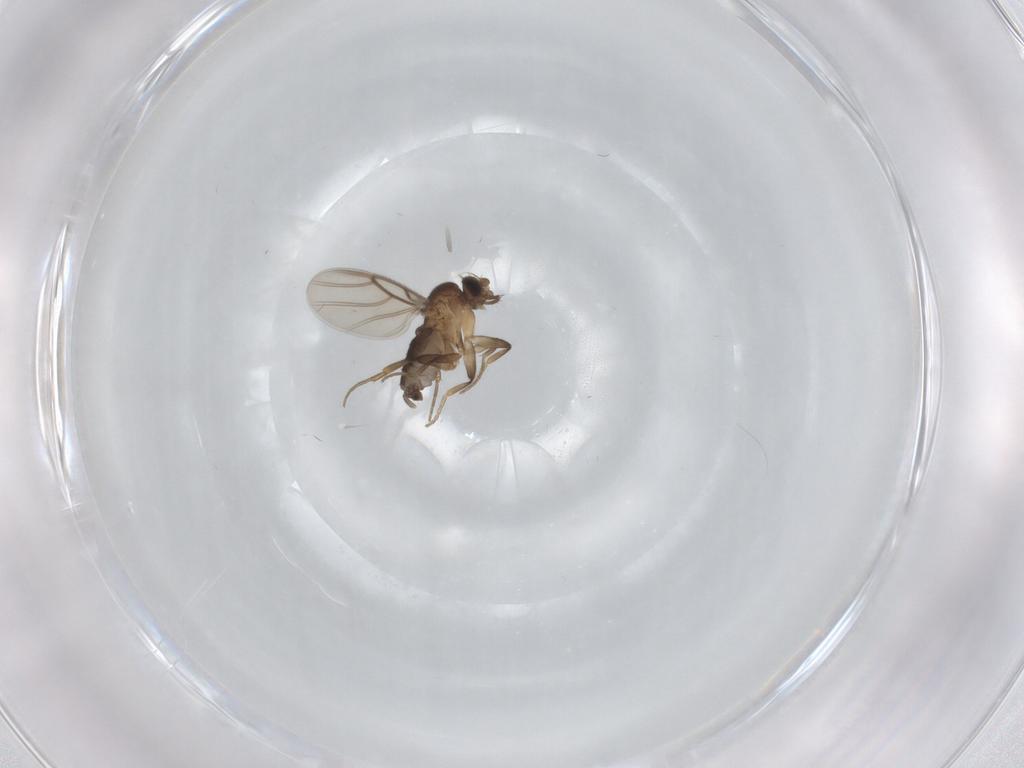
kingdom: Animalia
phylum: Arthropoda
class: Insecta
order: Diptera
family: Phoridae
